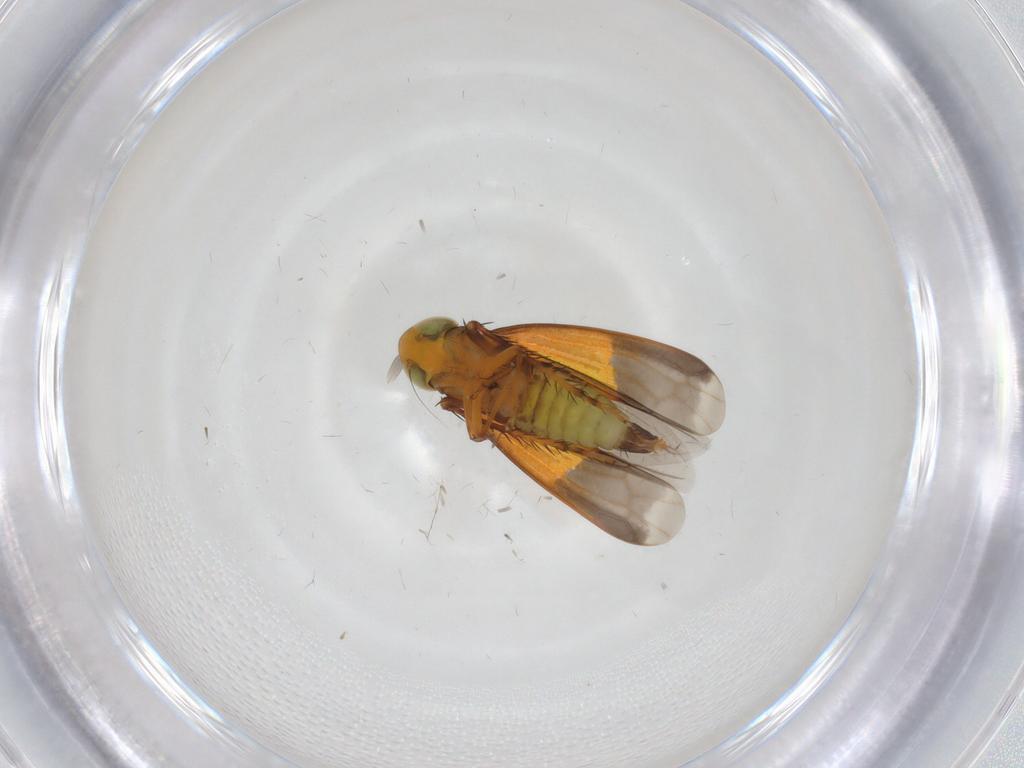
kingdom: Animalia
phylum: Arthropoda
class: Insecta
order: Hemiptera
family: Cicadellidae
